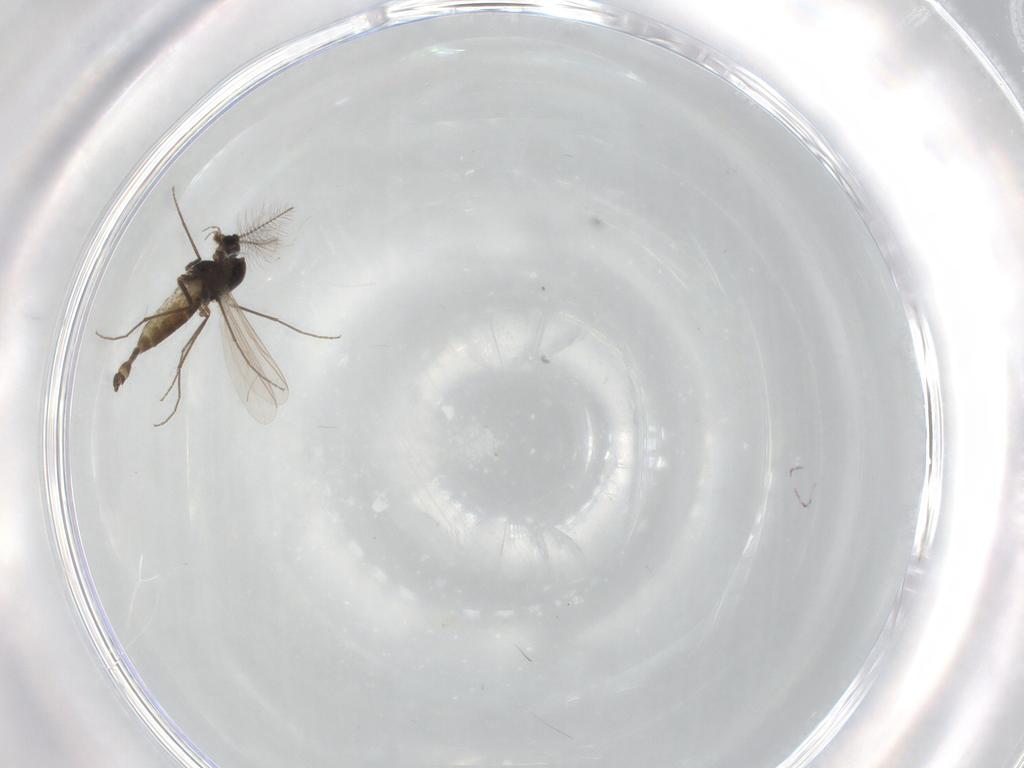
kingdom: Animalia
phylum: Arthropoda
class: Insecta
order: Diptera
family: Chironomidae
